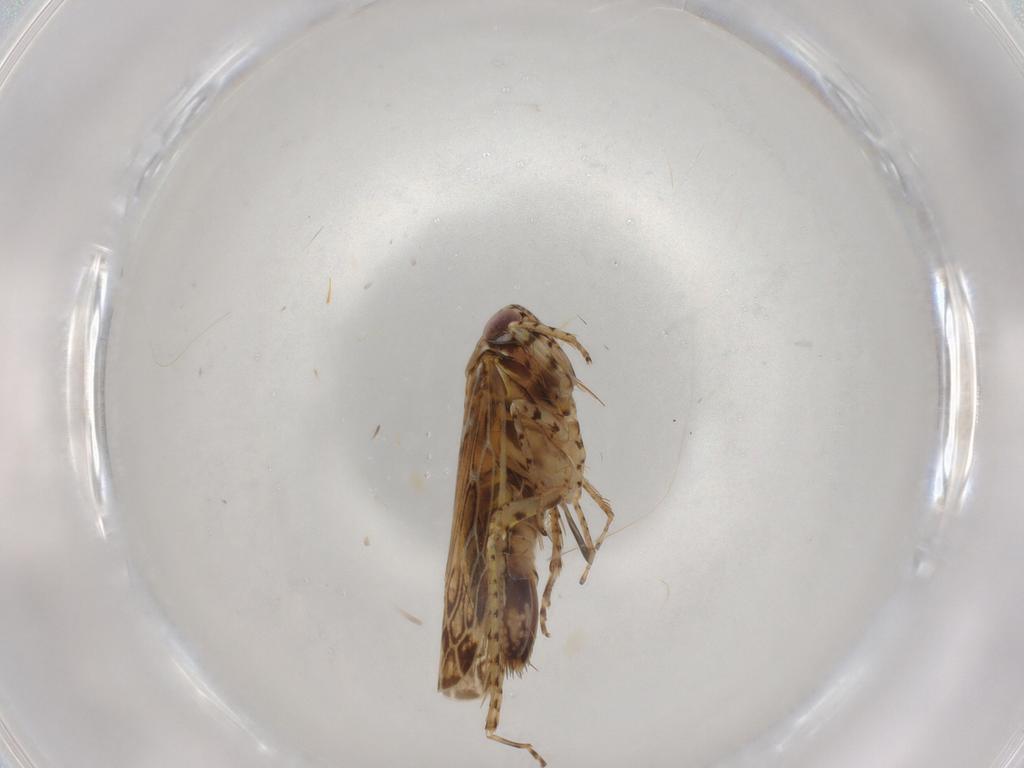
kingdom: Animalia
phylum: Arthropoda
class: Insecta
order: Hemiptera
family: Cicadellidae
